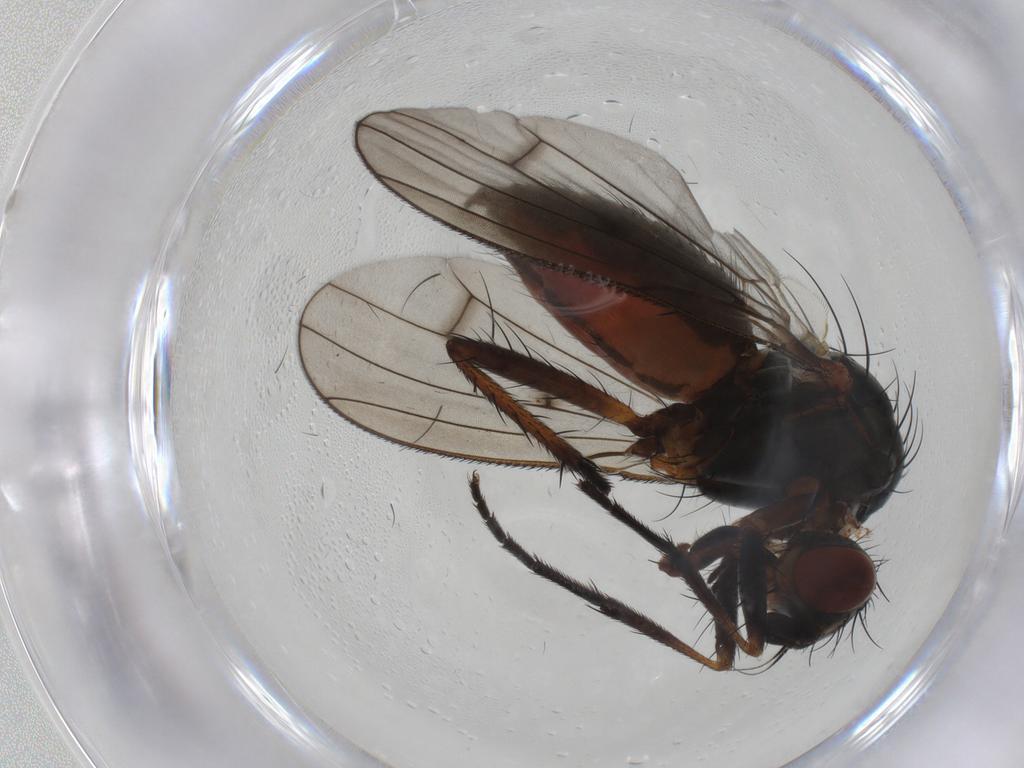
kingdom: Animalia
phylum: Arthropoda
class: Insecta
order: Diptera
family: Anthomyiidae
